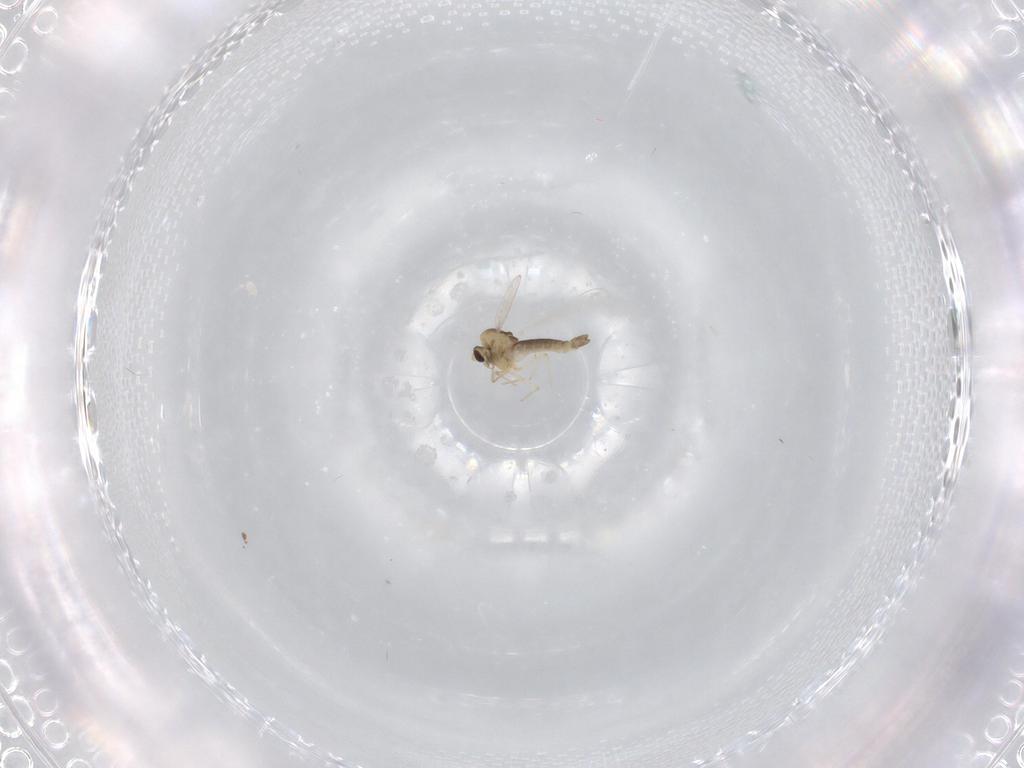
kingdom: Animalia
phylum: Arthropoda
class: Insecta
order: Diptera
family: Chironomidae
